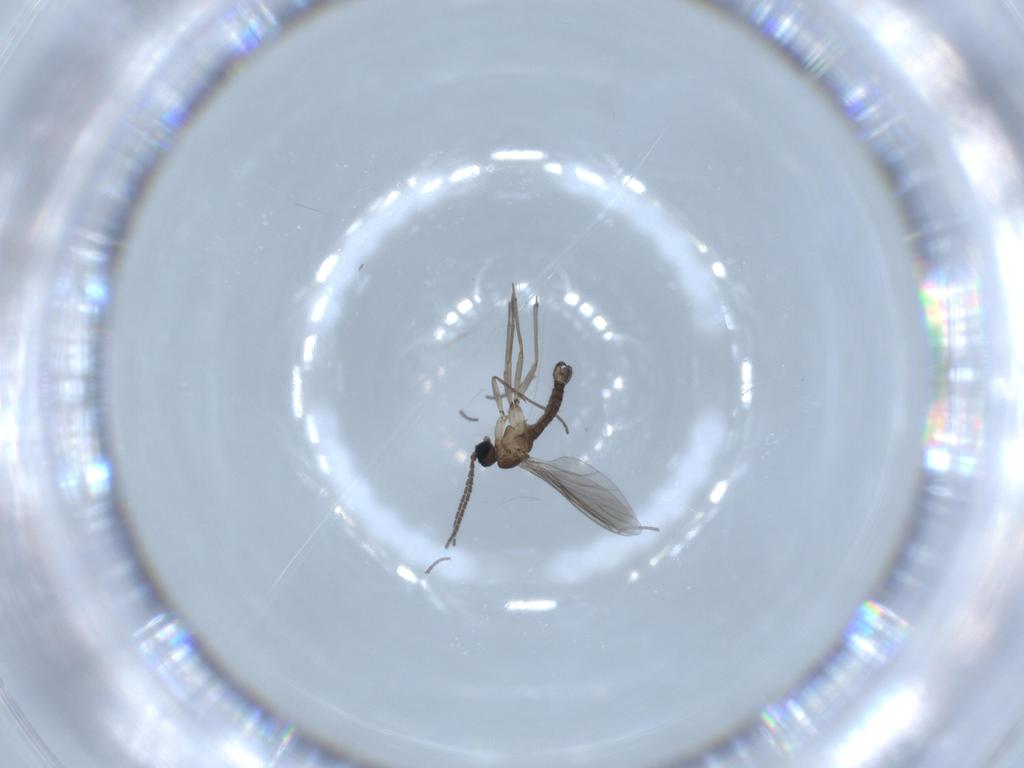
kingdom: Animalia
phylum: Arthropoda
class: Insecta
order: Diptera
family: Sciaridae
